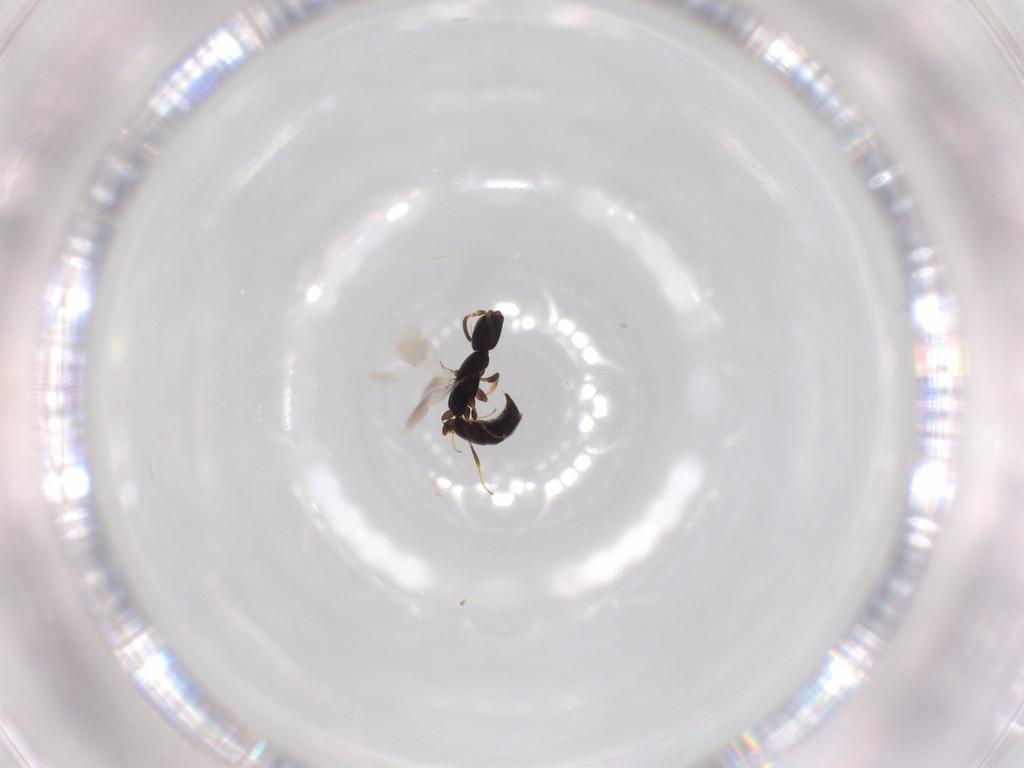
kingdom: Animalia
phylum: Arthropoda
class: Insecta
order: Hymenoptera
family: Bethylidae
